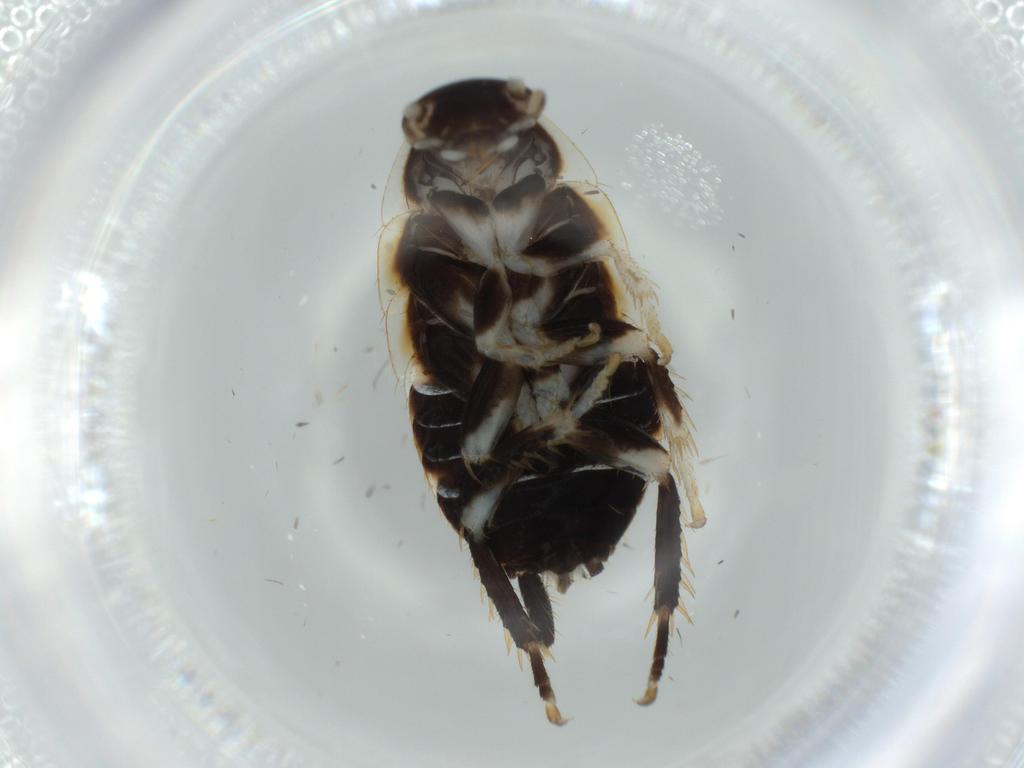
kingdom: Animalia
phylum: Arthropoda
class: Insecta
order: Blattodea
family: Ectobiidae
